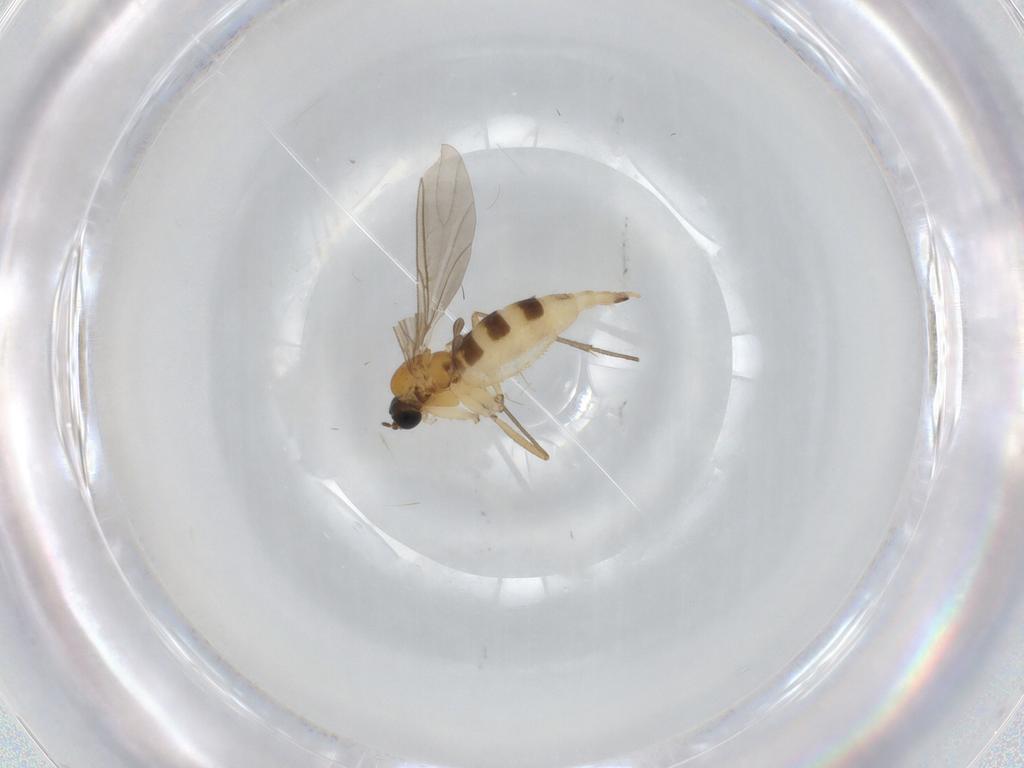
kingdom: Animalia
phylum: Arthropoda
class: Insecta
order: Diptera
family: Sciaridae
